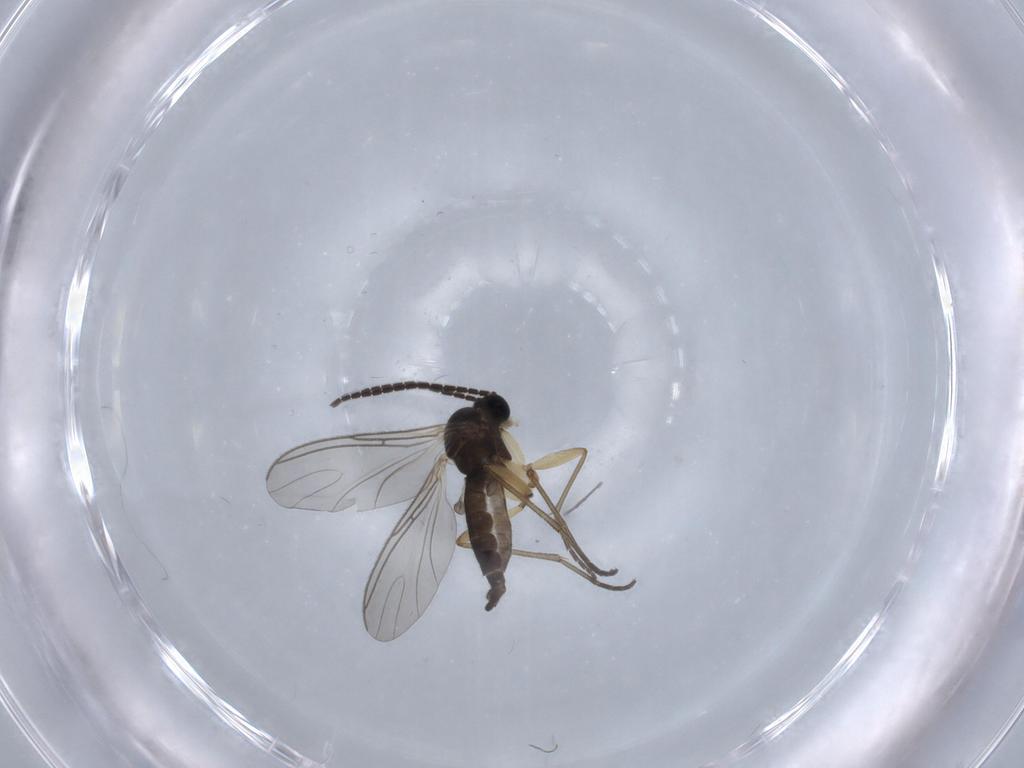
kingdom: Animalia
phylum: Arthropoda
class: Insecta
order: Diptera
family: Sciaridae
